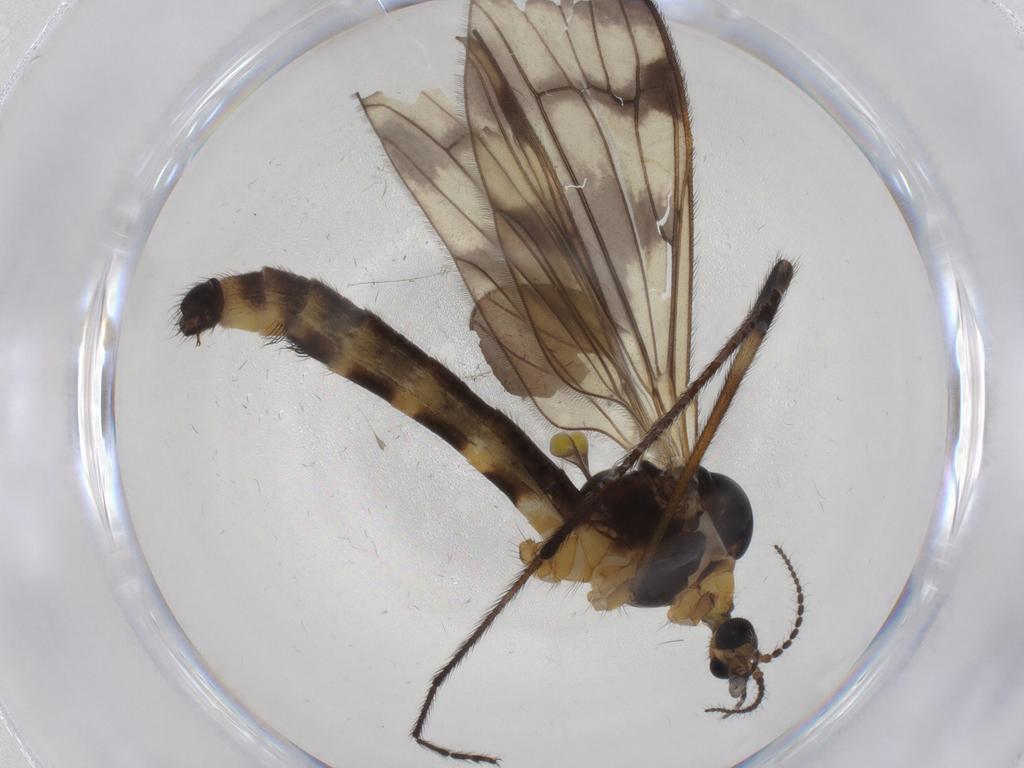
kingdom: Animalia
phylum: Arthropoda
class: Insecta
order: Diptera
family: Limoniidae
